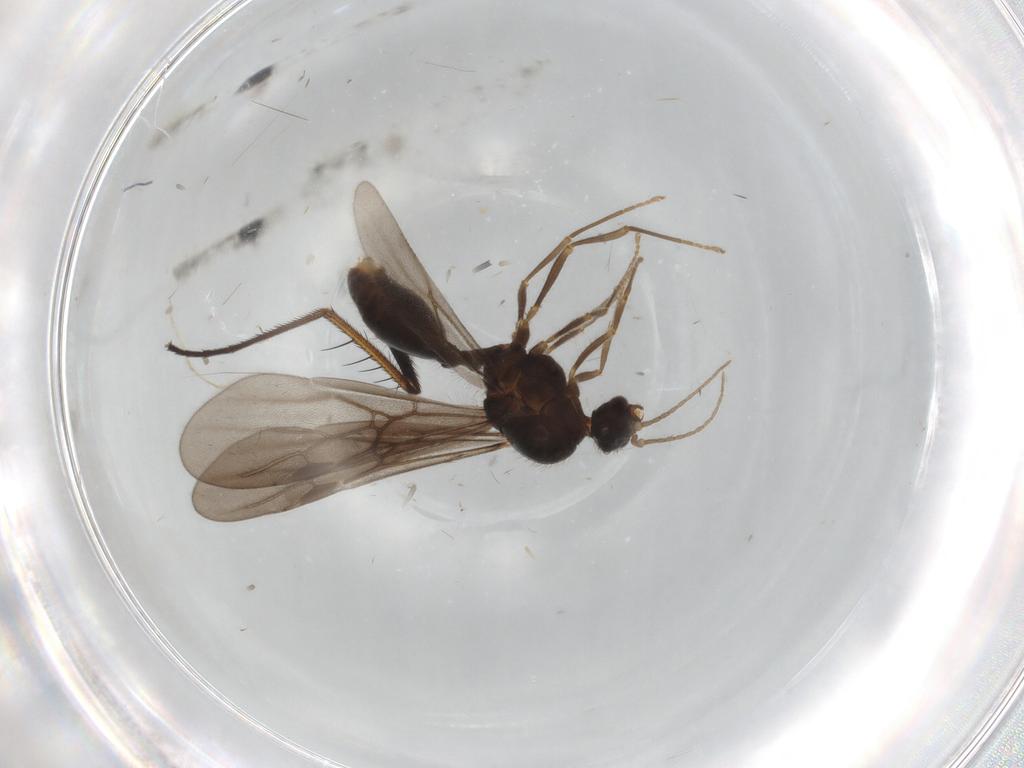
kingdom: Animalia
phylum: Arthropoda
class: Insecta
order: Hymenoptera
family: Formicidae
